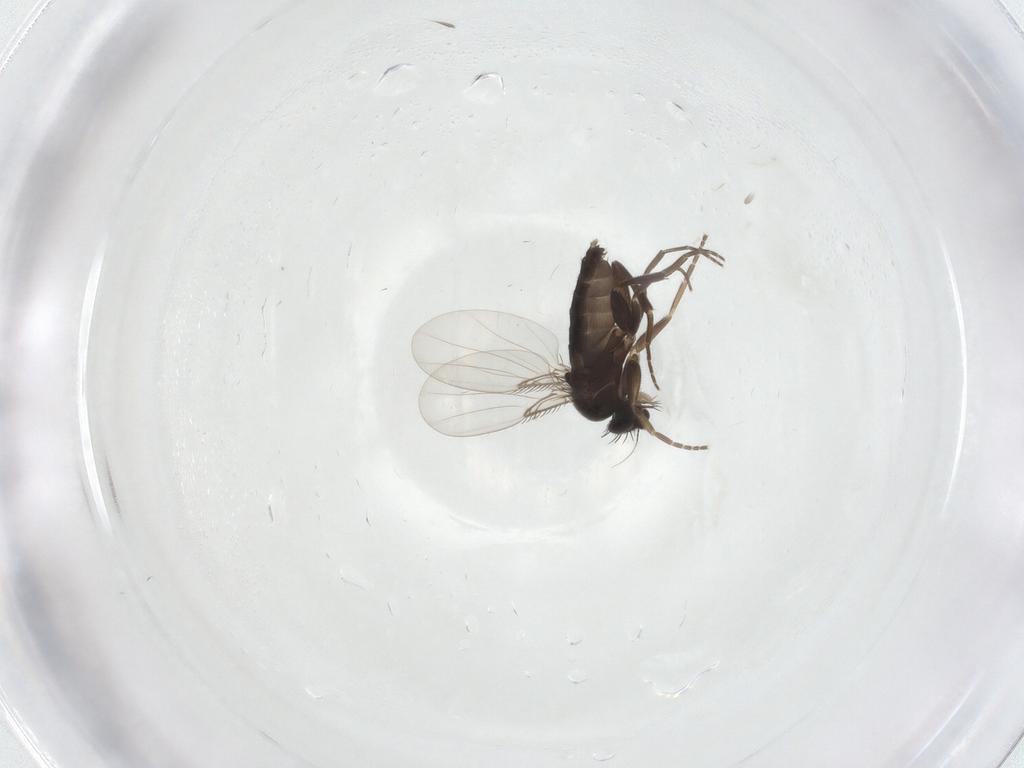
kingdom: Animalia
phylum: Arthropoda
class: Insecta
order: Diptera
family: Phoridae
